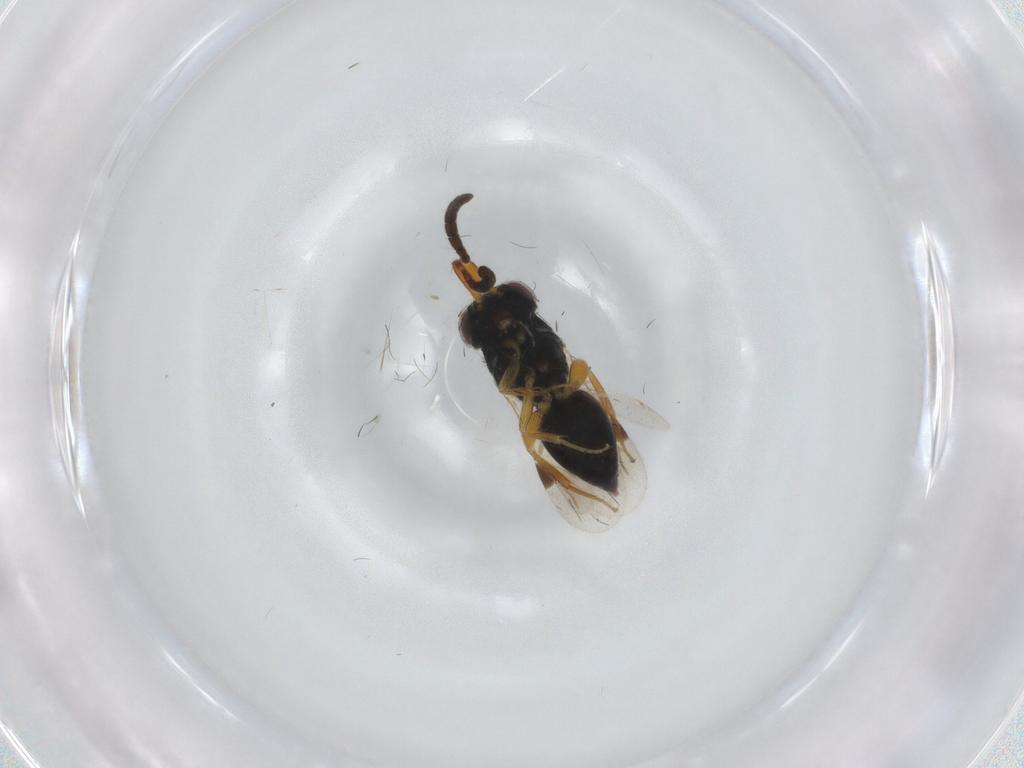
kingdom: Animalia
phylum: Arthropoda
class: Insecta
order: Hymenoptera
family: Megaspilidae
